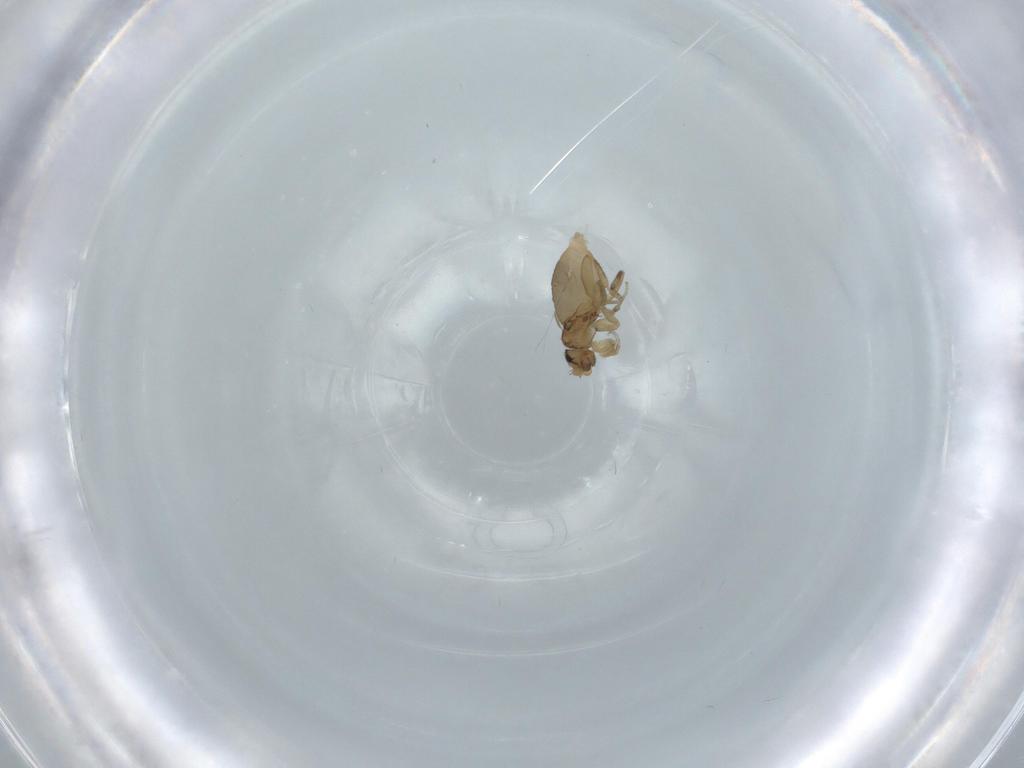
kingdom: Animalia
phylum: Arthropoda
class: Insecta
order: Diptera
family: Phoridae
